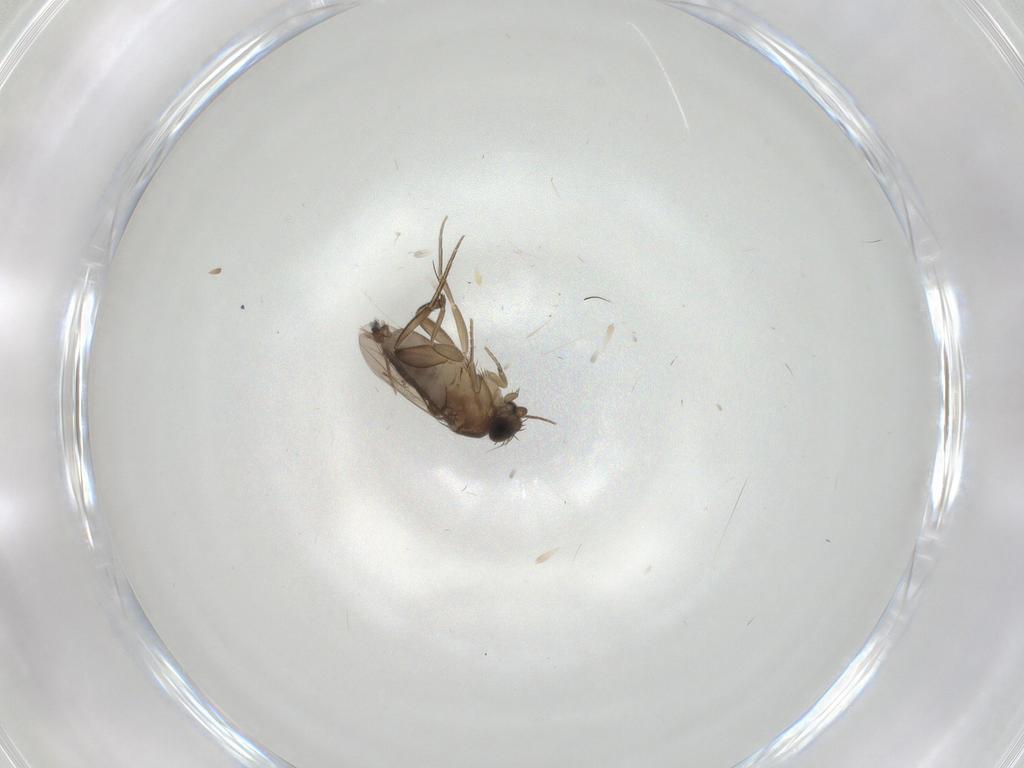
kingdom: Animalia
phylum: Arthropoda
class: Insecta
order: Diptera
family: Phoridae
